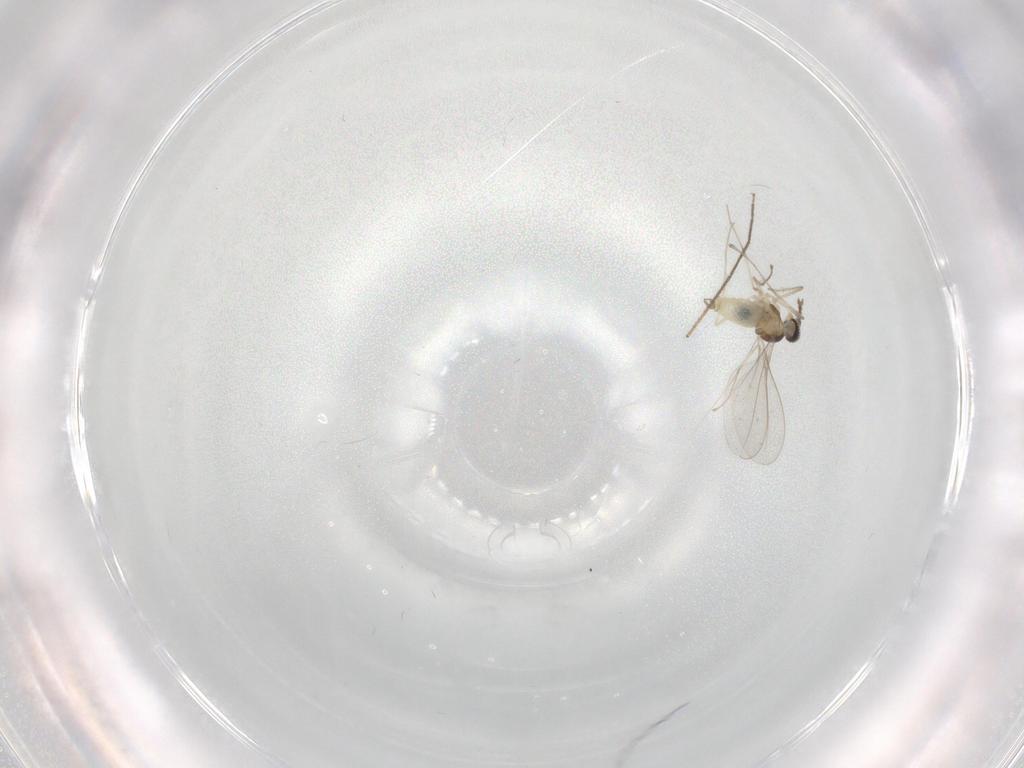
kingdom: Animalia
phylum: Arthropoda
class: Insecta
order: Diptera
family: Cecidomyiidae
